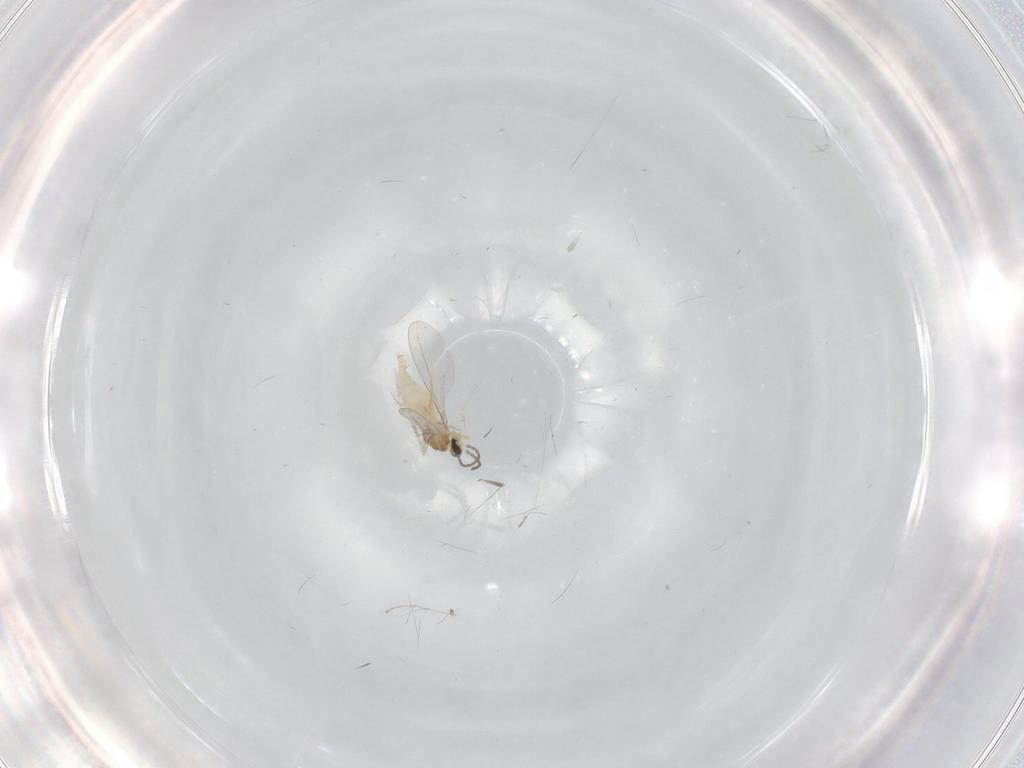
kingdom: Animalia
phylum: Arthropoda
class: Insecta
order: Diptera
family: Cecidomyiidae
